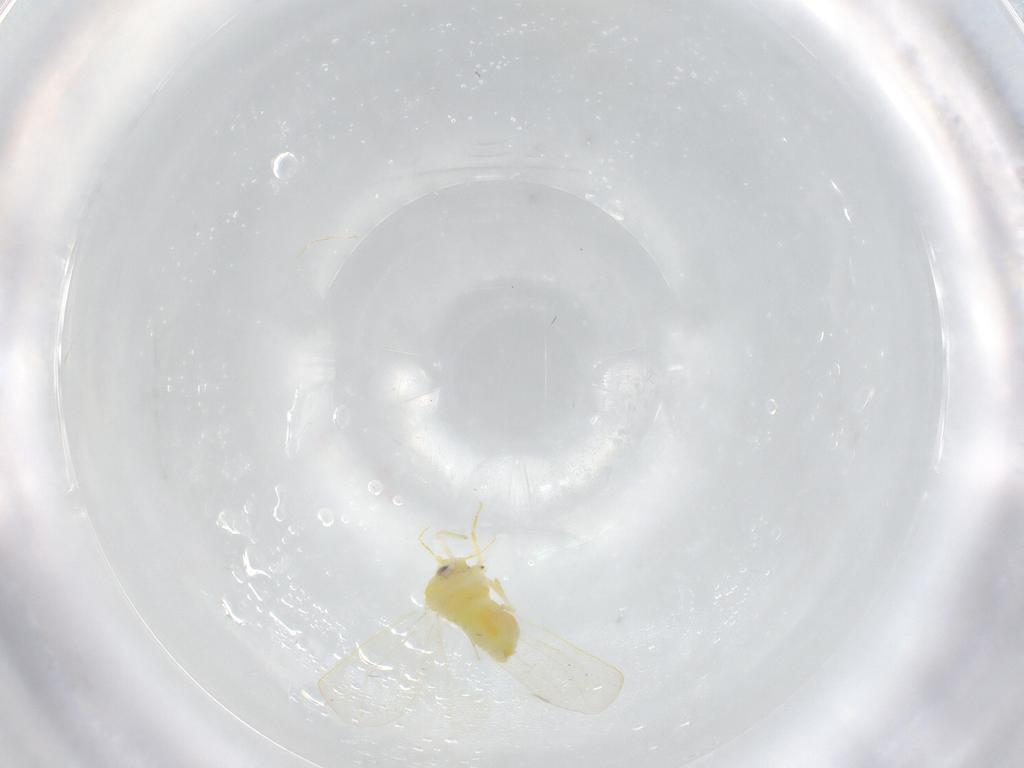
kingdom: Animalia
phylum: Arthropoda
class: Insecta
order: Hemiptera
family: Aleyrodidae
